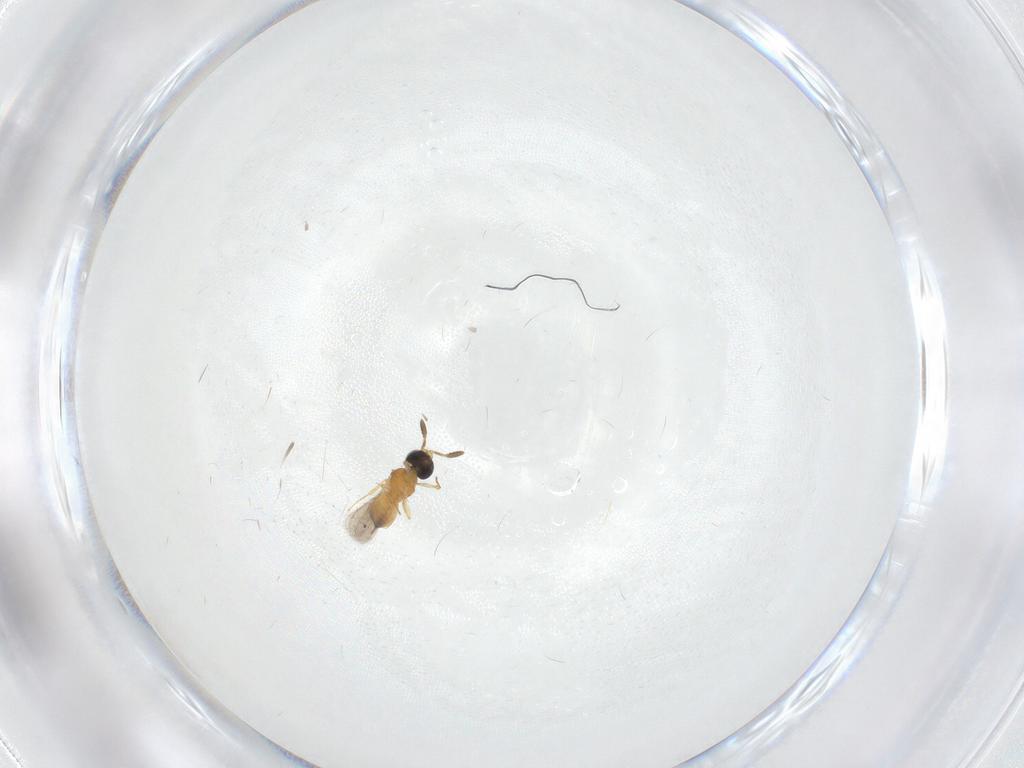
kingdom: Animalia
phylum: Arthropoda
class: Insecta
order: Hymenoptera
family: Scelionidae
